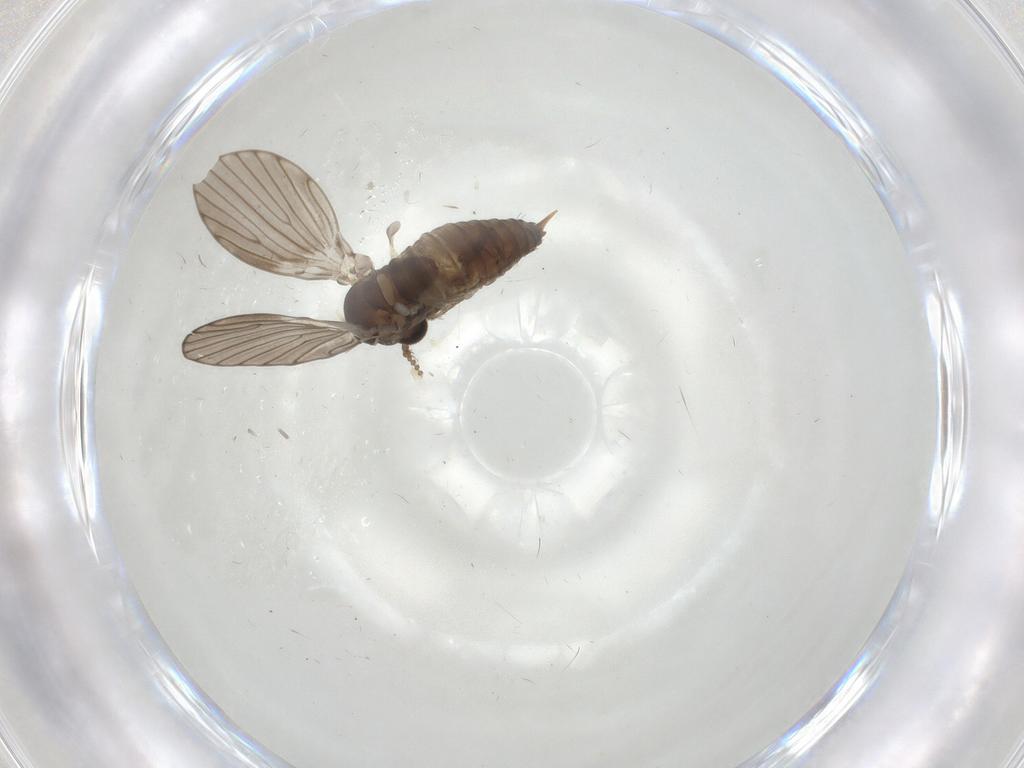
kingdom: Animalia
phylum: Arthropoda
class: Insecta
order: Diptera
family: Psychodidae
